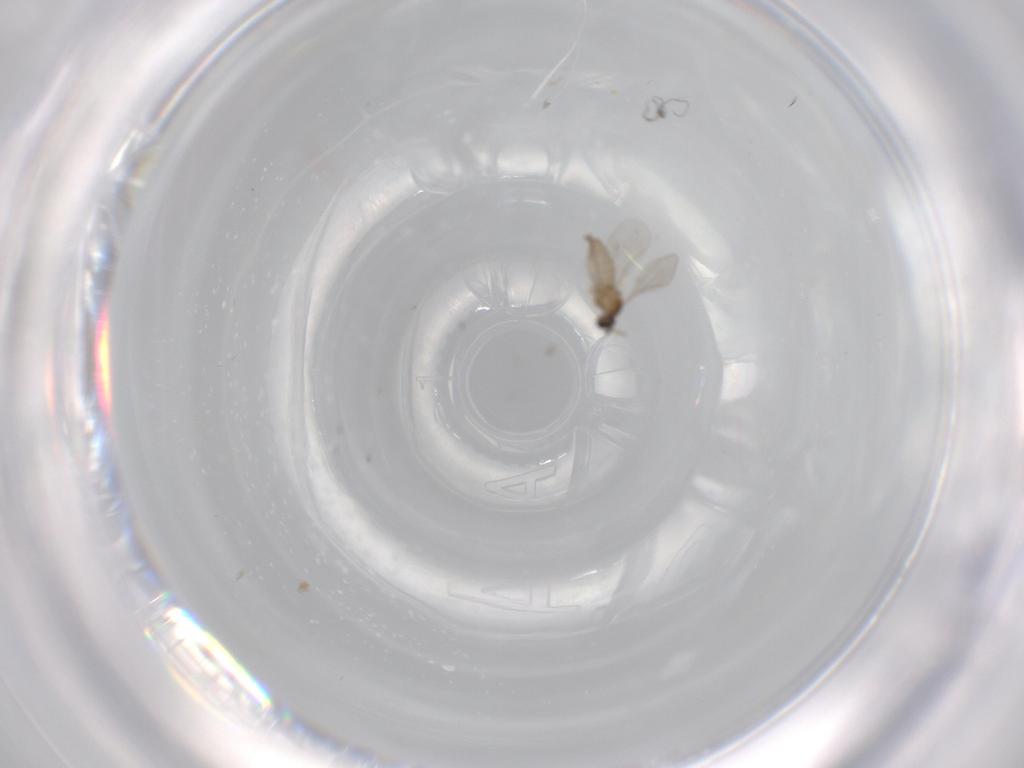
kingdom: Animalia
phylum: Arthropoda
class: Insecta
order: Diptera
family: Cecidomyiidae
